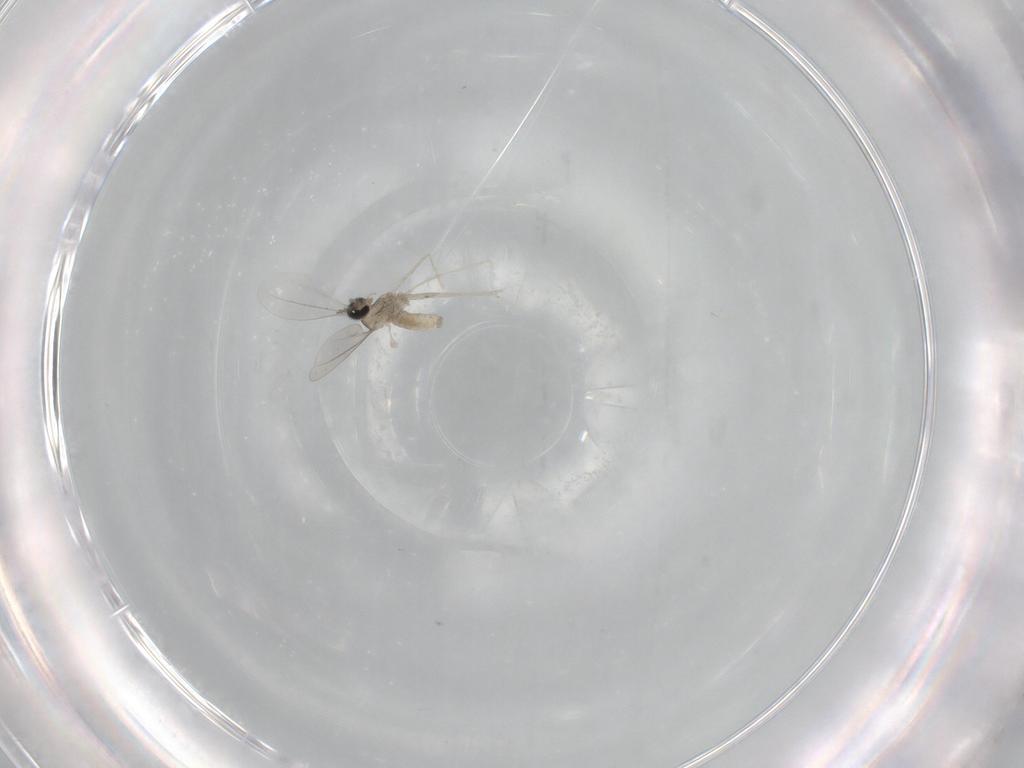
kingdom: Animalia
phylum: Arthropoda
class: Insecta
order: Diptera
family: Cecidomyiidae
